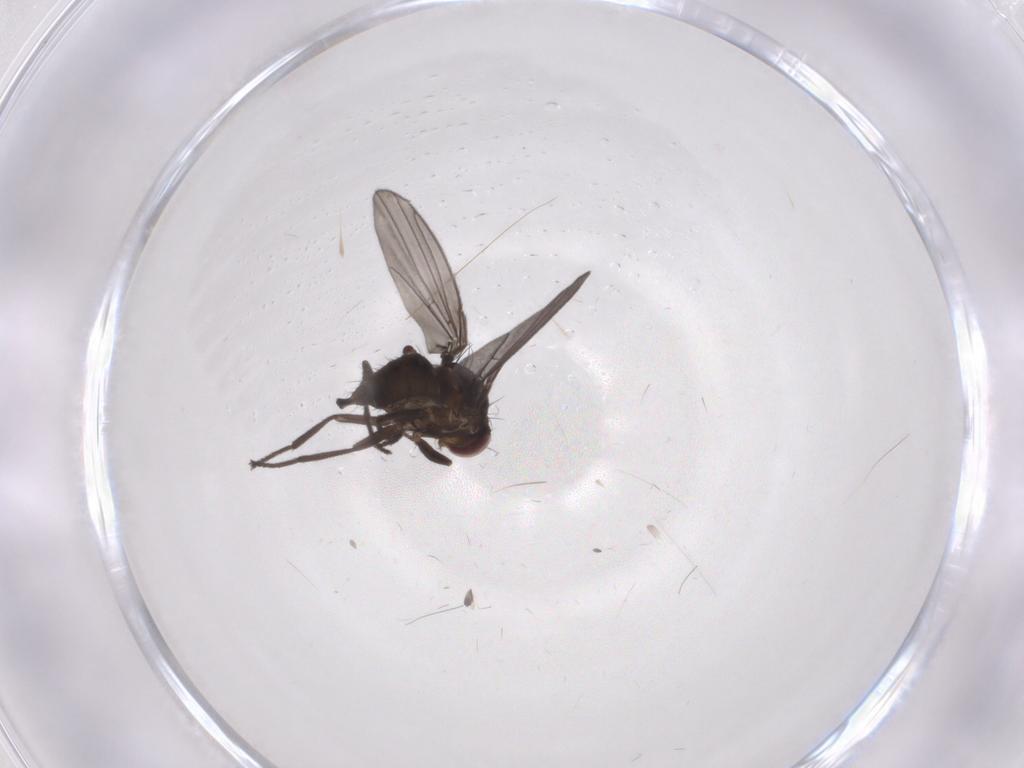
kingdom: Animalia
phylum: Arthropoda
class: Insecta
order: Diptera
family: Agromyzidae
